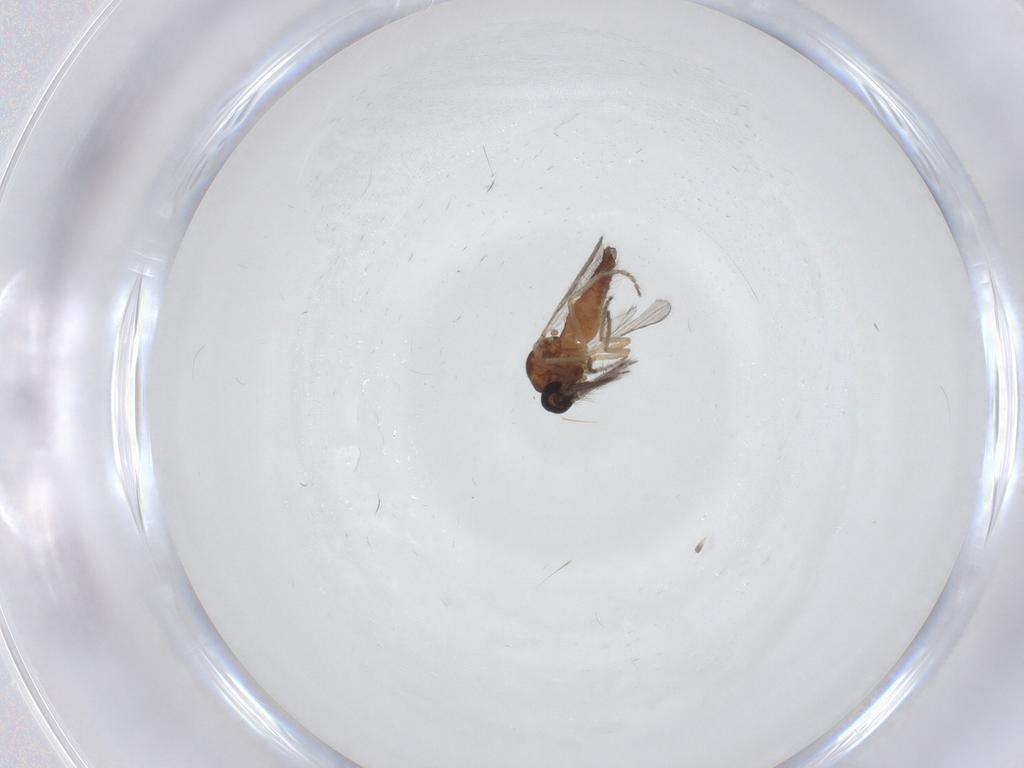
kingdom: Animalia
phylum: Arthropoda
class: Insecta
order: Diptera
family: Ceratopogonidae
